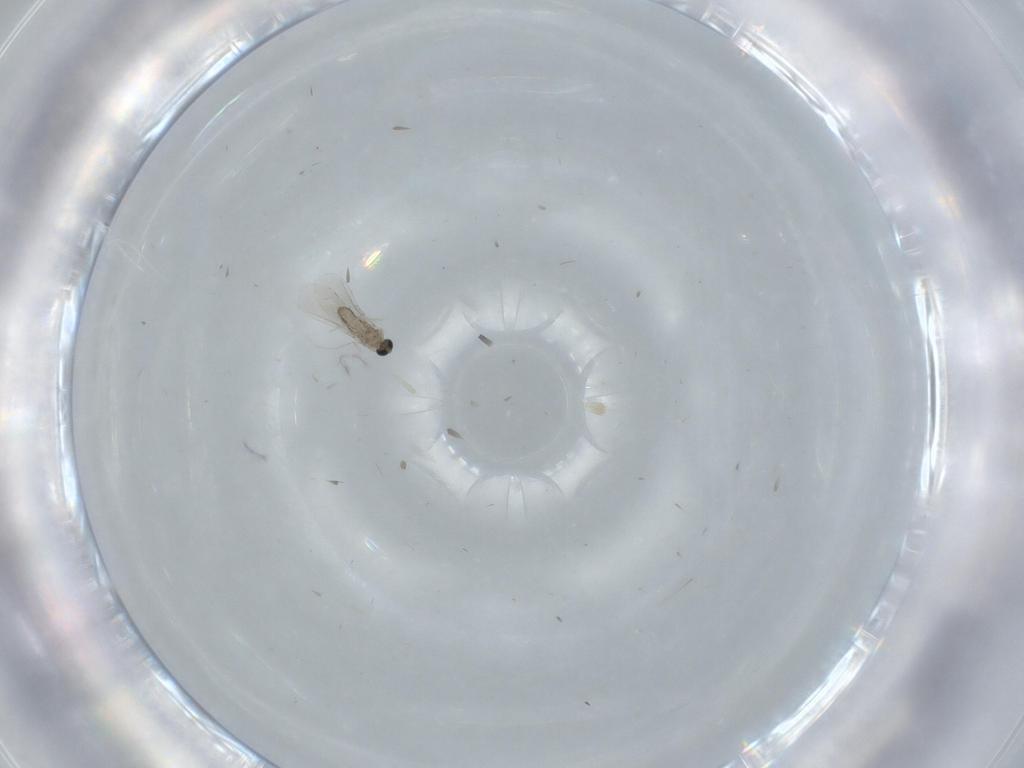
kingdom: Animalia
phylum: Arthropoda
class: Insecta
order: Diptera
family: Cecidomyiidae
